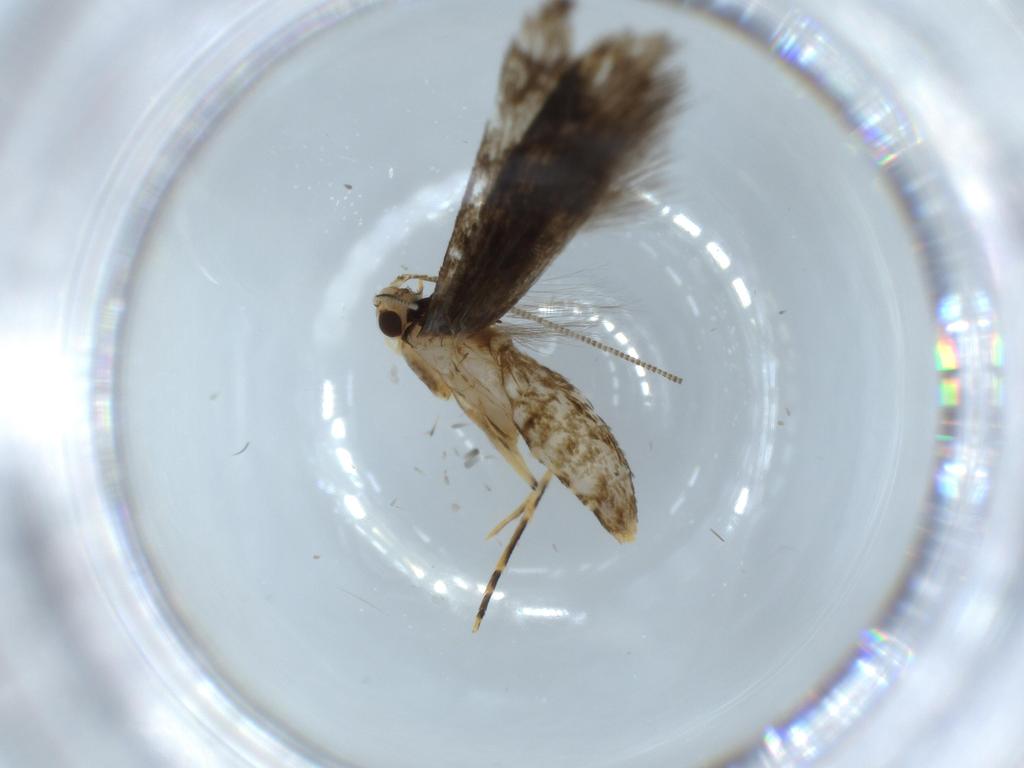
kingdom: Animalia
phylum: Arthropoda
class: Insecta
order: Lepidoptera
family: Meessiidae
